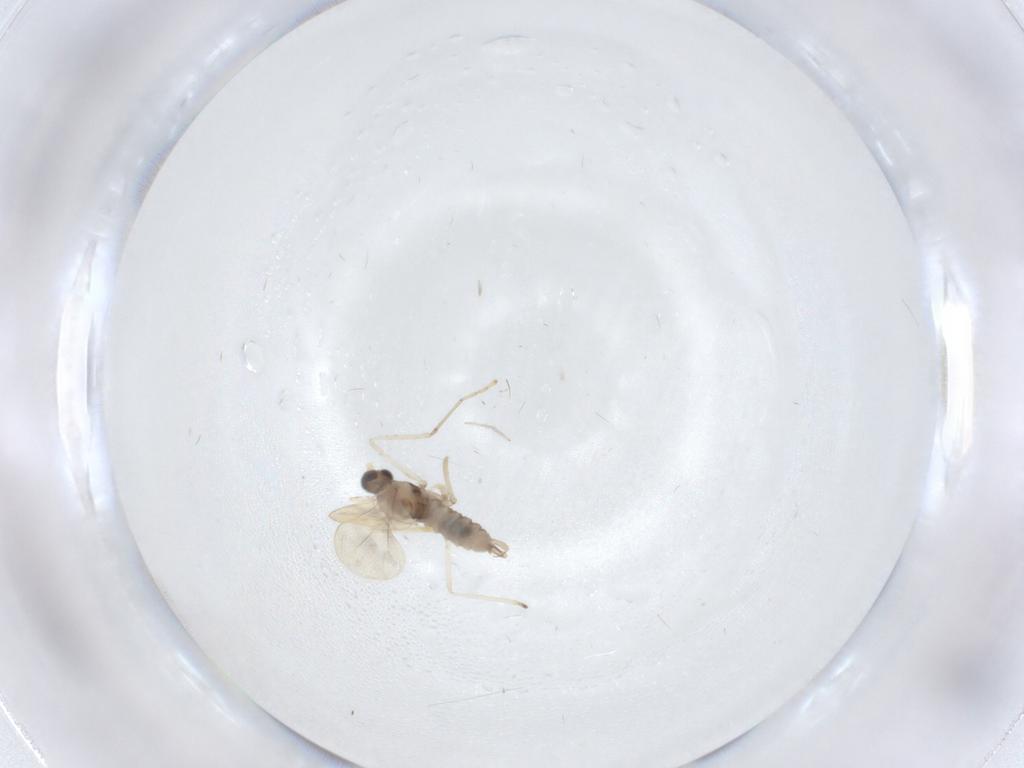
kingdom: Animalia
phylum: Arthropoda
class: Insecta
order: Diptera
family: Cecidomyiidae
